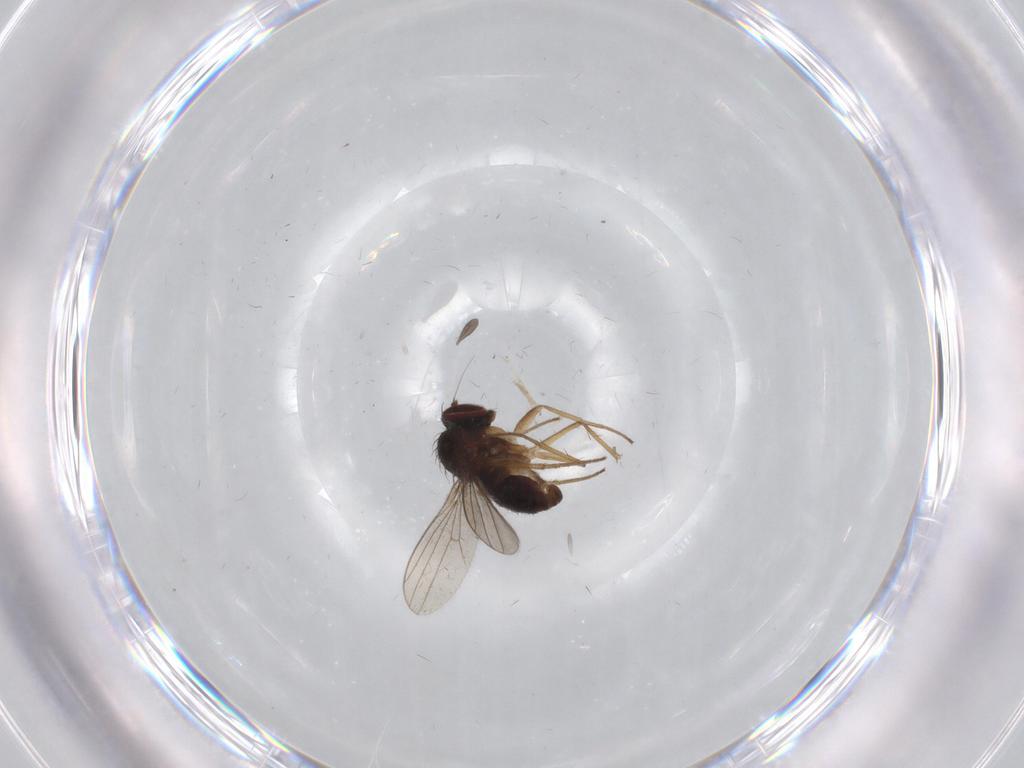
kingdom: Animalia
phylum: Arthropoda
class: Insecta
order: Diptera
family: Dolichopodidae
